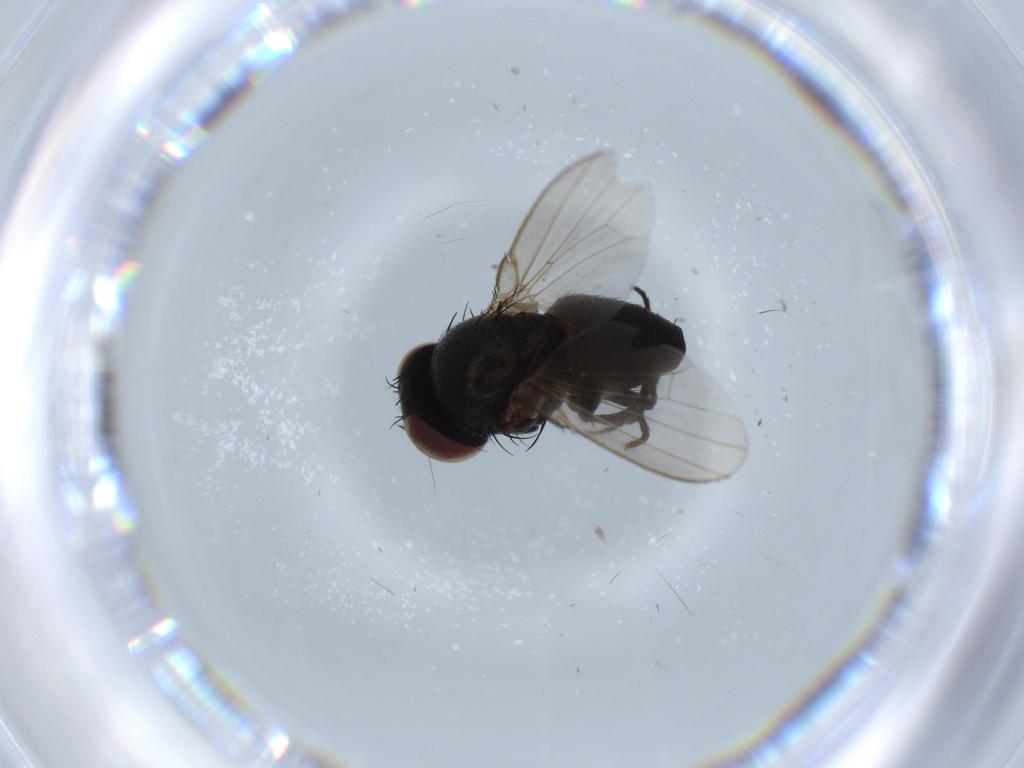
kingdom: Animalia
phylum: Arthropoda
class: Insecta
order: Diptera
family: Milichiidae
